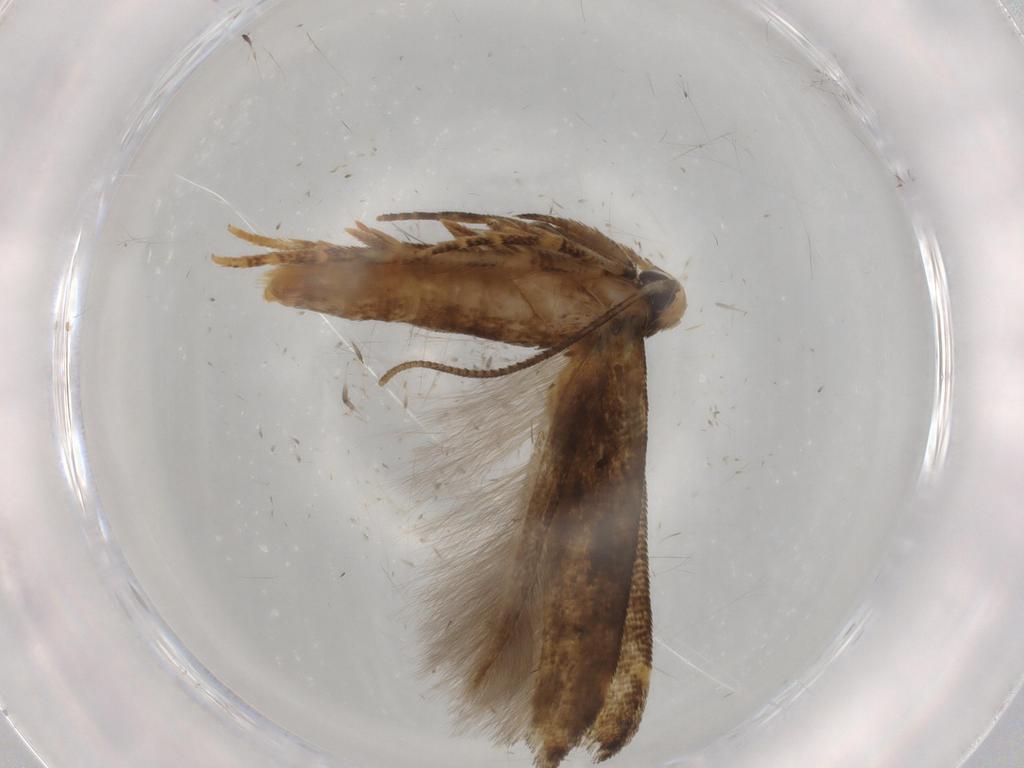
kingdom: Animalia
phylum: Arthropoda
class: Insecta
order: Lepidoptera
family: Cosmopterigidae
